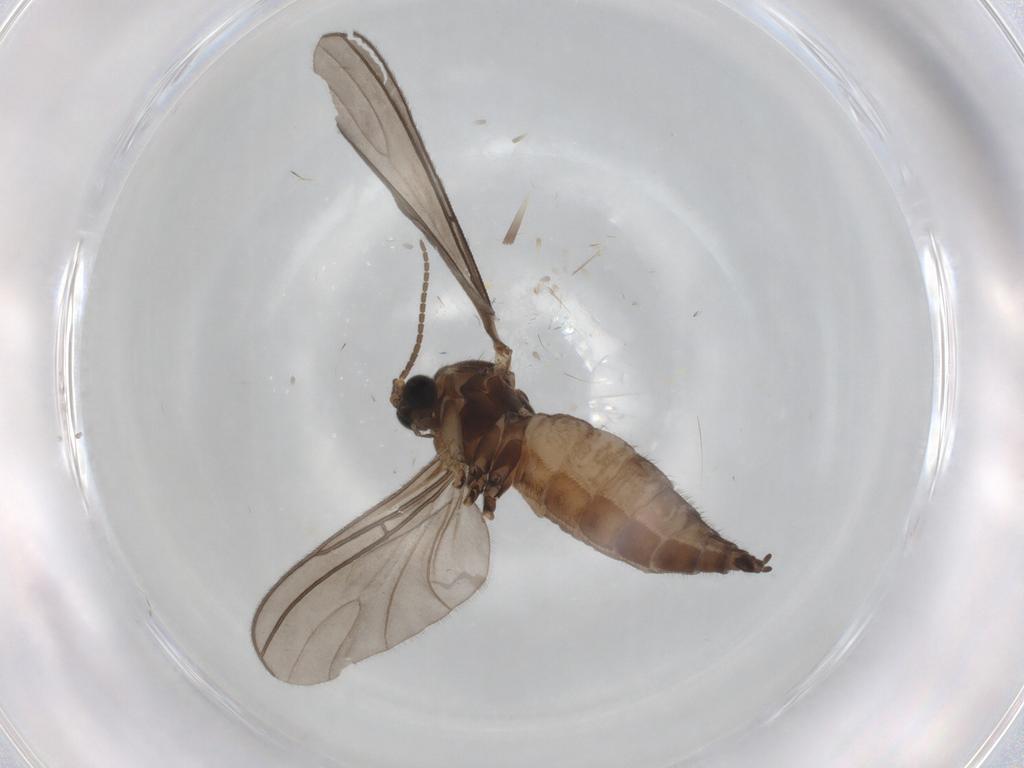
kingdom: Animalia
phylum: Arthropoda
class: Insecta
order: Diptera
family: Sciaridae
